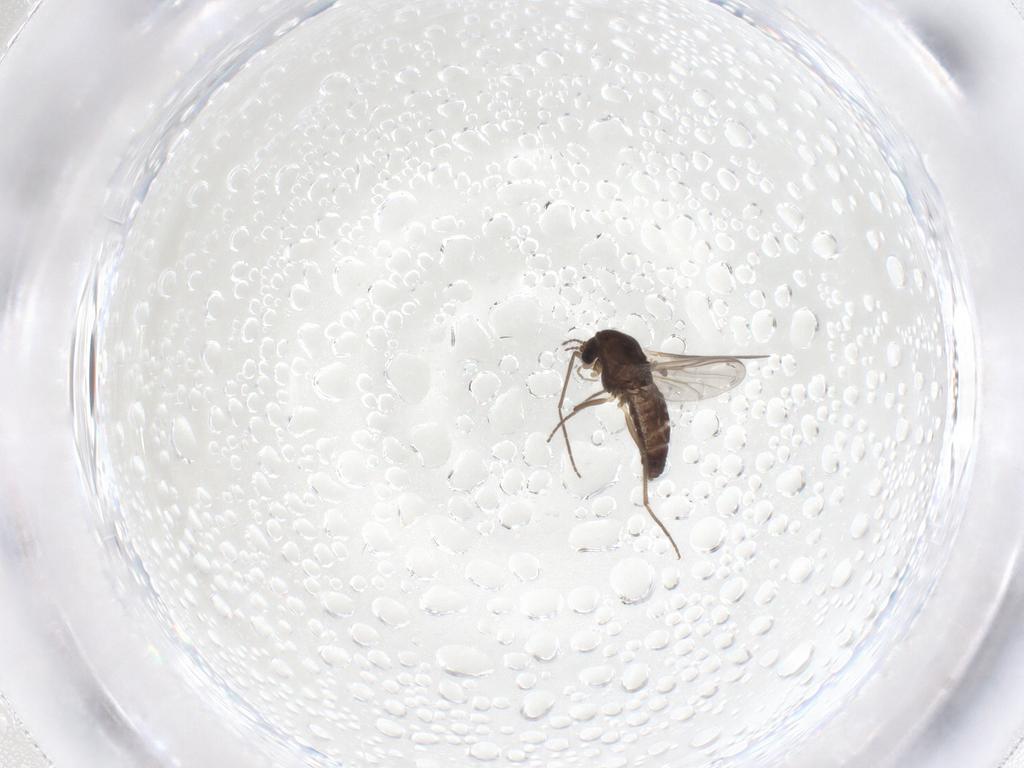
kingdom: Animalia
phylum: Arthropoda
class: Insecta
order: Diptera
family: Chironomidae
